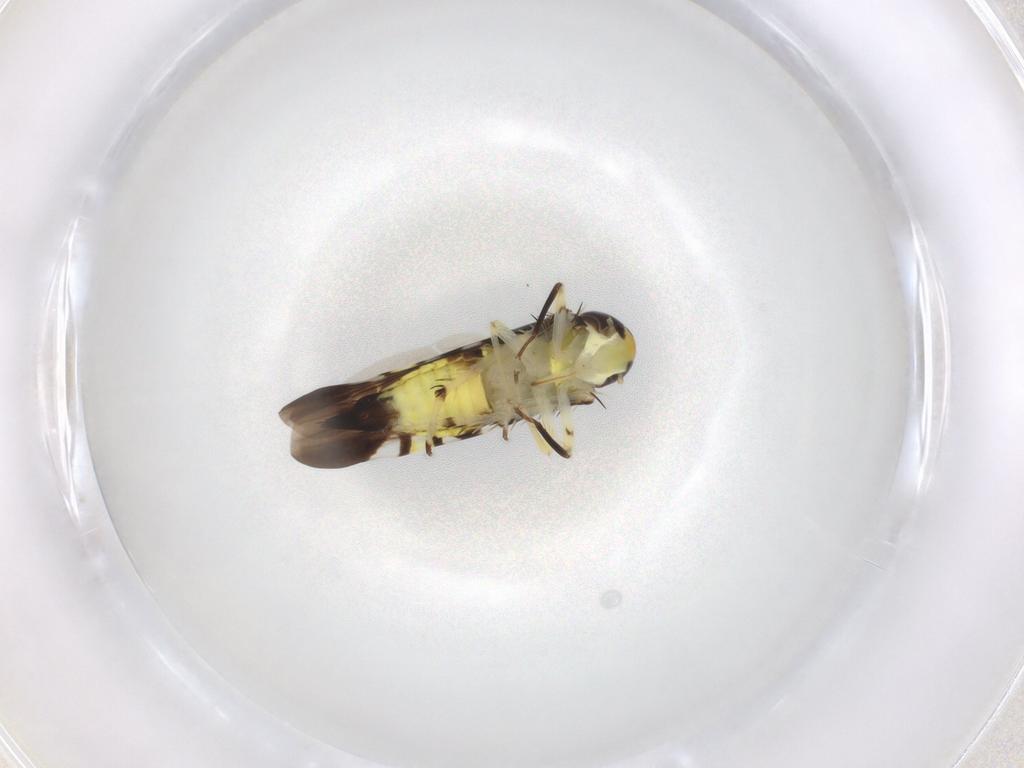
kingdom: Animalia
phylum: Arthropoda
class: Insecta
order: Hemiptera
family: Cicadellidae
